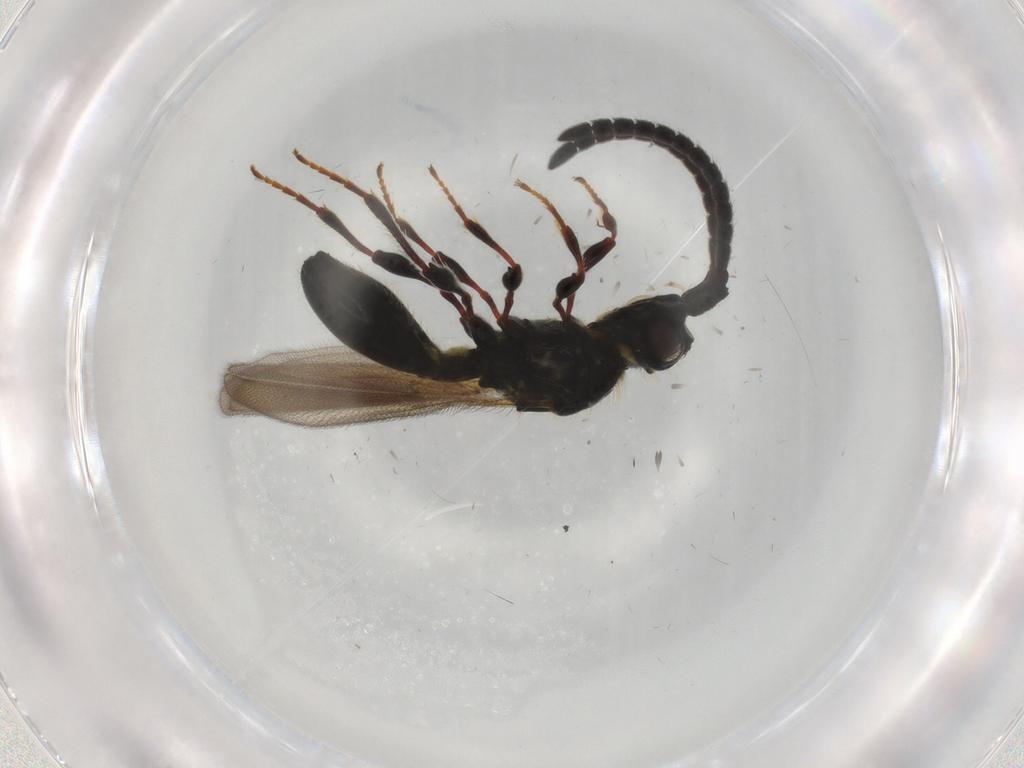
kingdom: Animalia
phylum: Arthropoda
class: Insecta
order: Hymenoptera
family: Diapriidae
